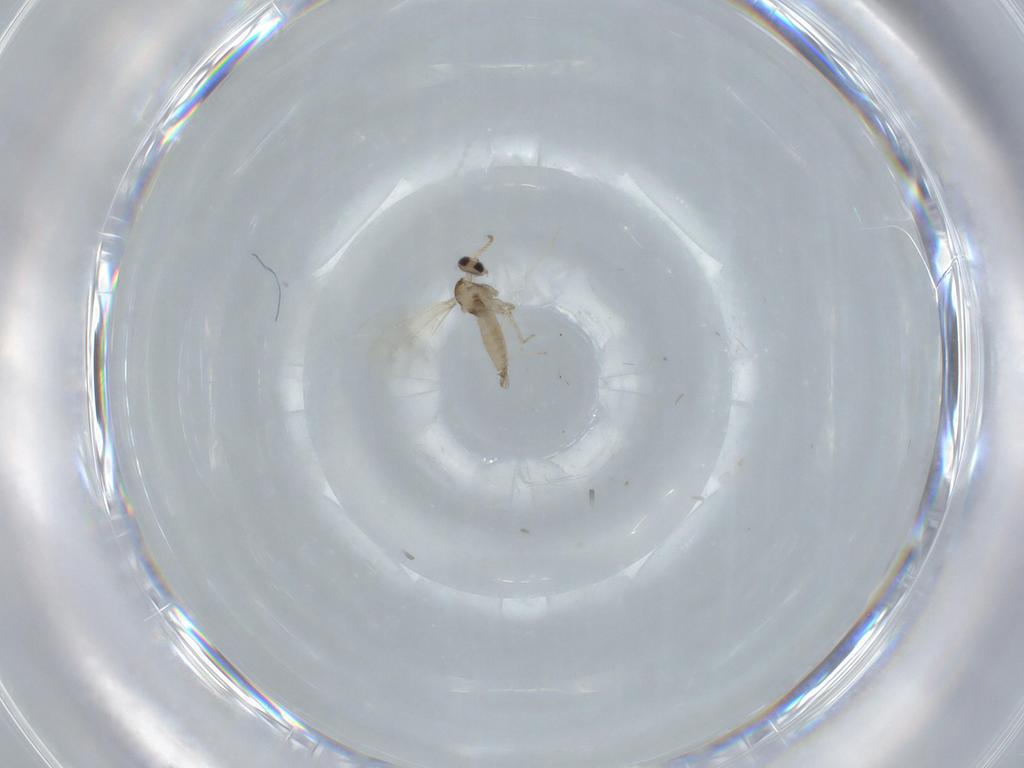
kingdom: Animalia
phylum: Arthropoda
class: Insecta
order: Diptera
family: Cecidomyiidae
